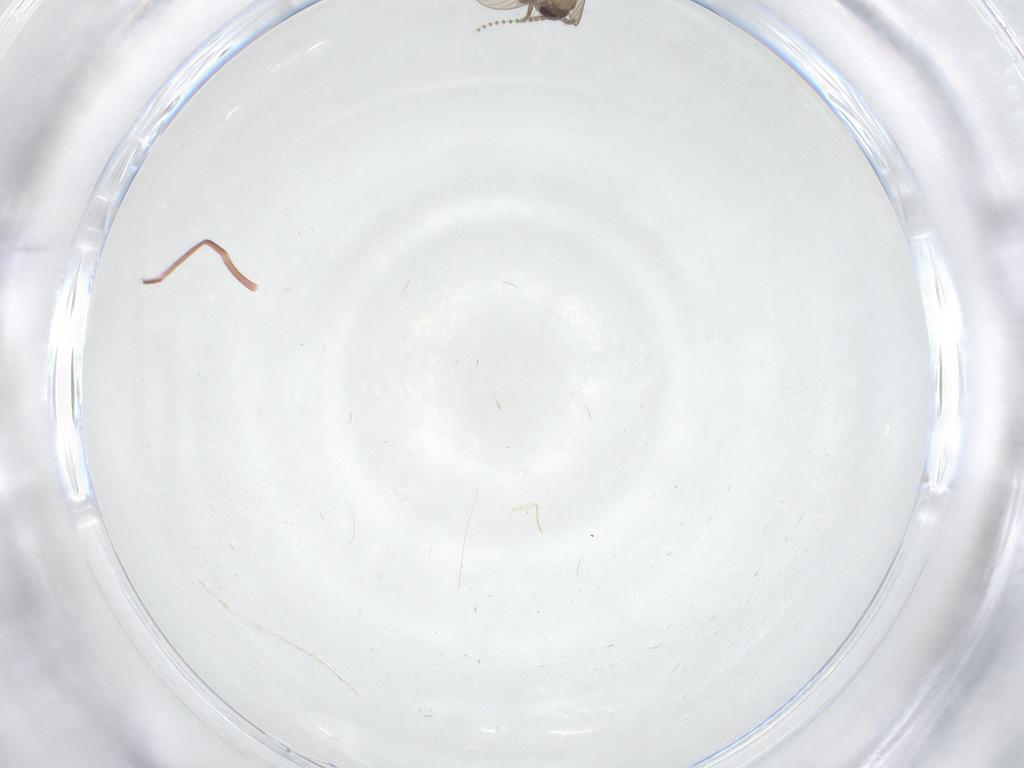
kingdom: Animalia
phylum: Arthropoda
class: Insecta
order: Diptera
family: Psychodidae
